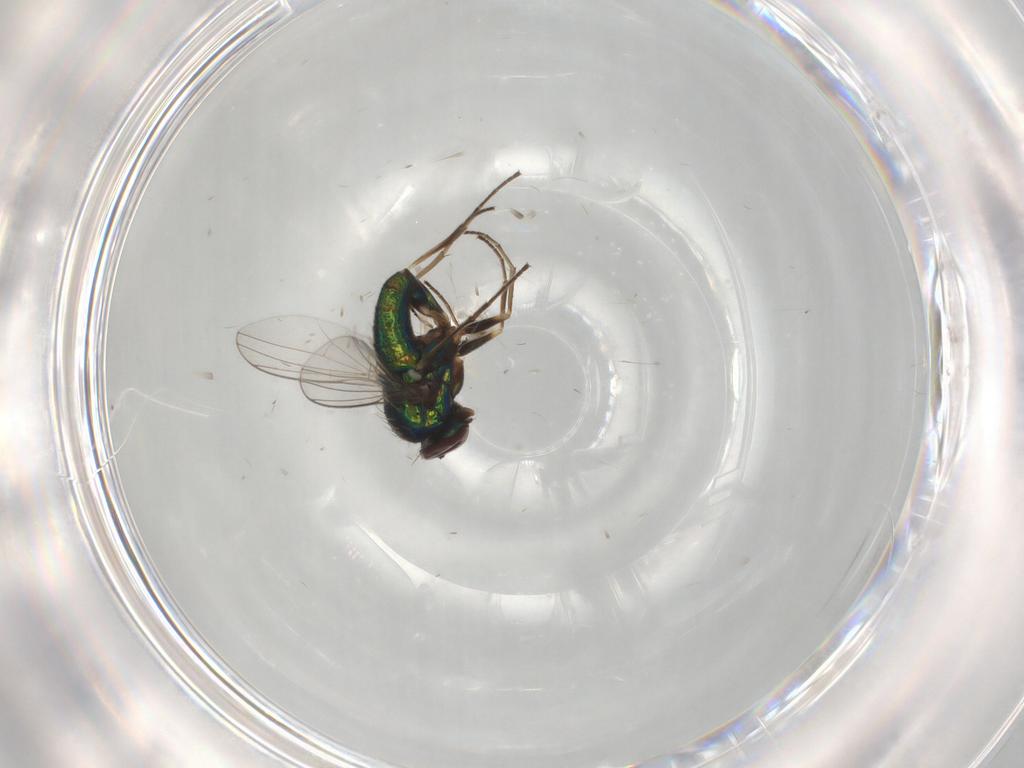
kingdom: Animalia
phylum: Arthropoda
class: Insecta
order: Diptera
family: Dolichopodidae
